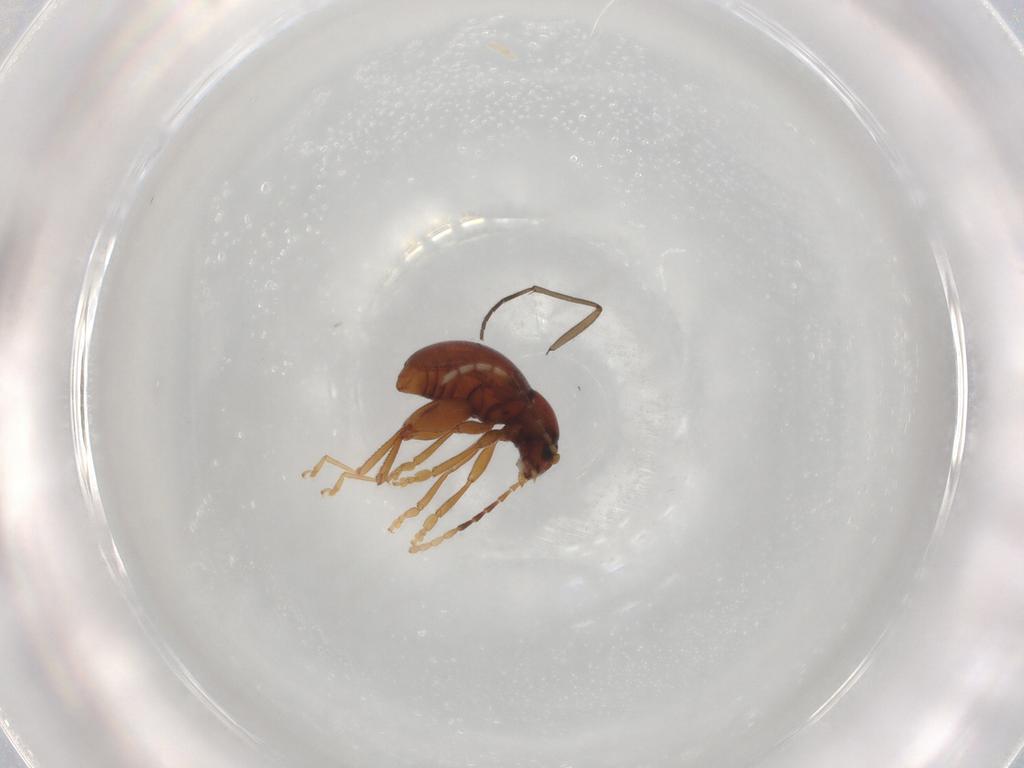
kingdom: Animalia
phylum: Arthropoda
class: Insecta
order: Coleoptera
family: Chrysomelidae
